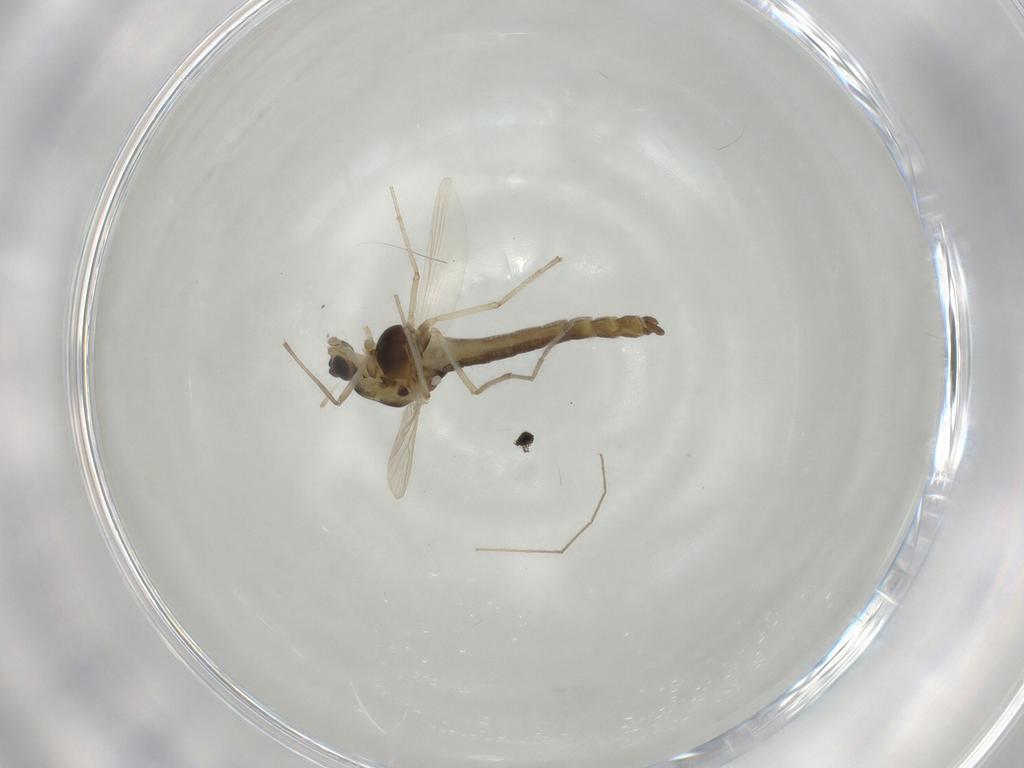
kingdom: Animalia
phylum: Arthropoda
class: Insecta
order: Diptera
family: Chironomidae
